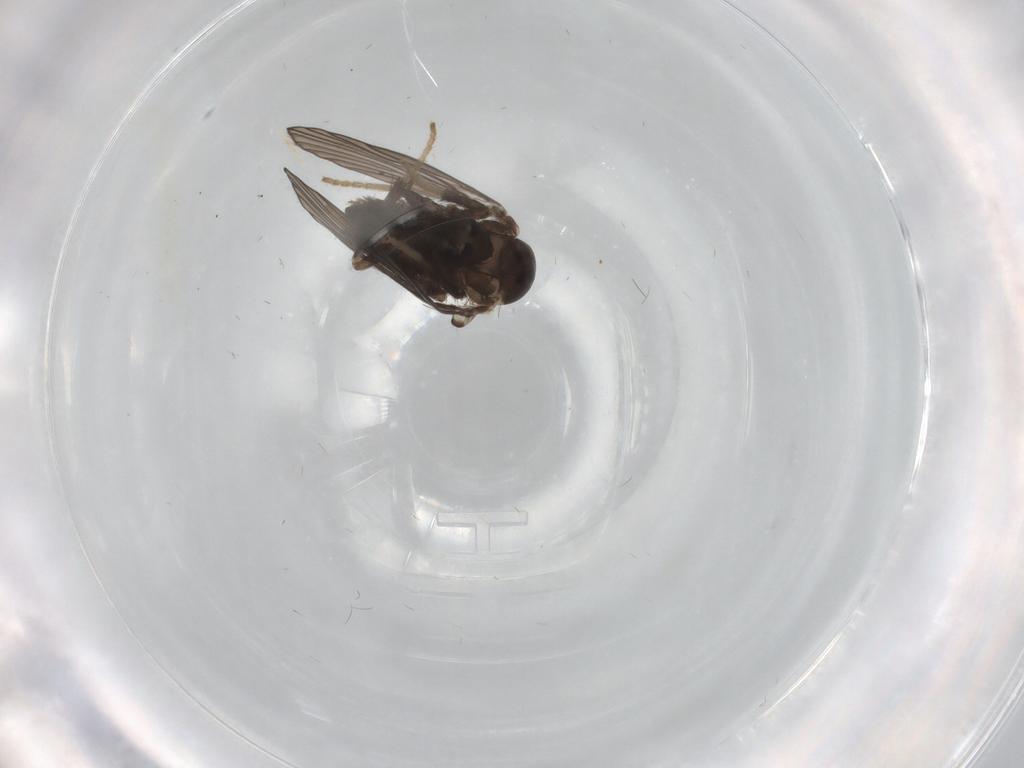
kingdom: Animalia
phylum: Arthropoda
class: Insecta
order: Diptera
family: Psychodidae
